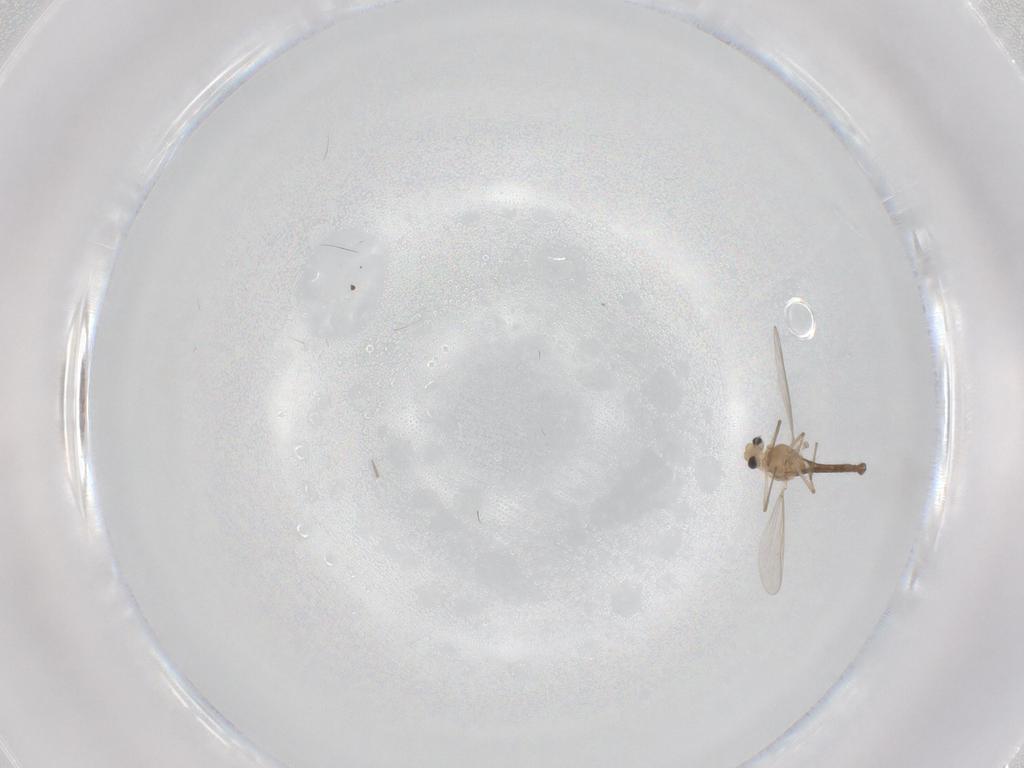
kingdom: Animalia
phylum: Arthropoda
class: Insecta
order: Diptera
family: Chironomidae
